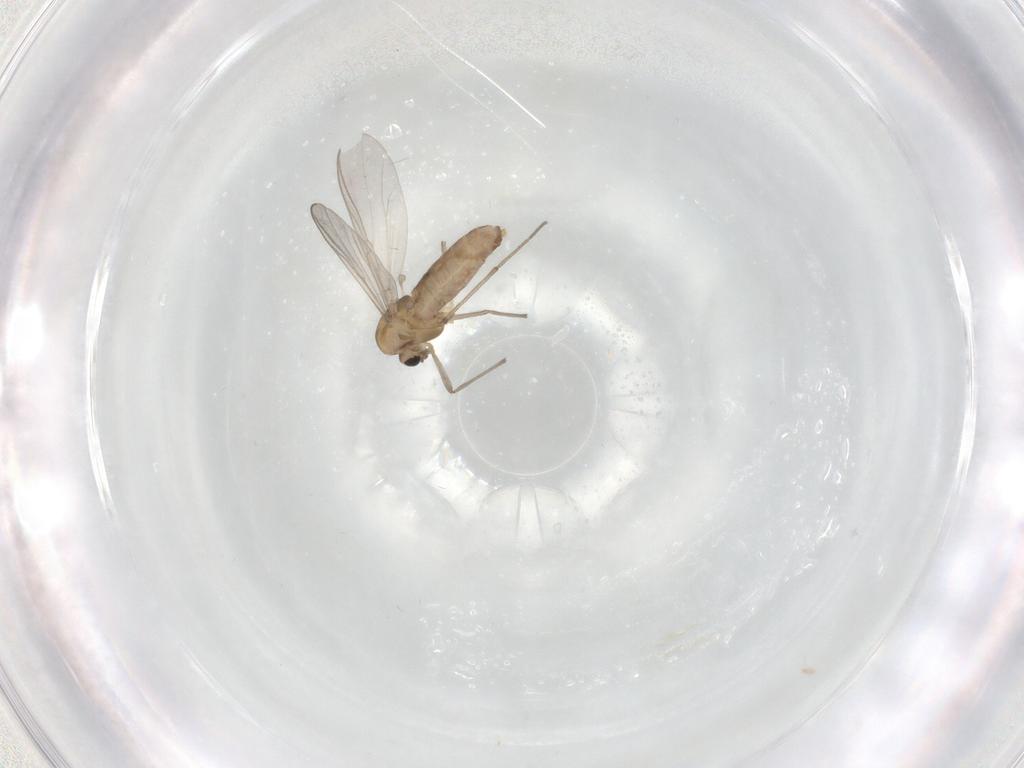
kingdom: Animalia
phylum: Arthropoda
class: Insecta
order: Diptera
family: Limoniidae
